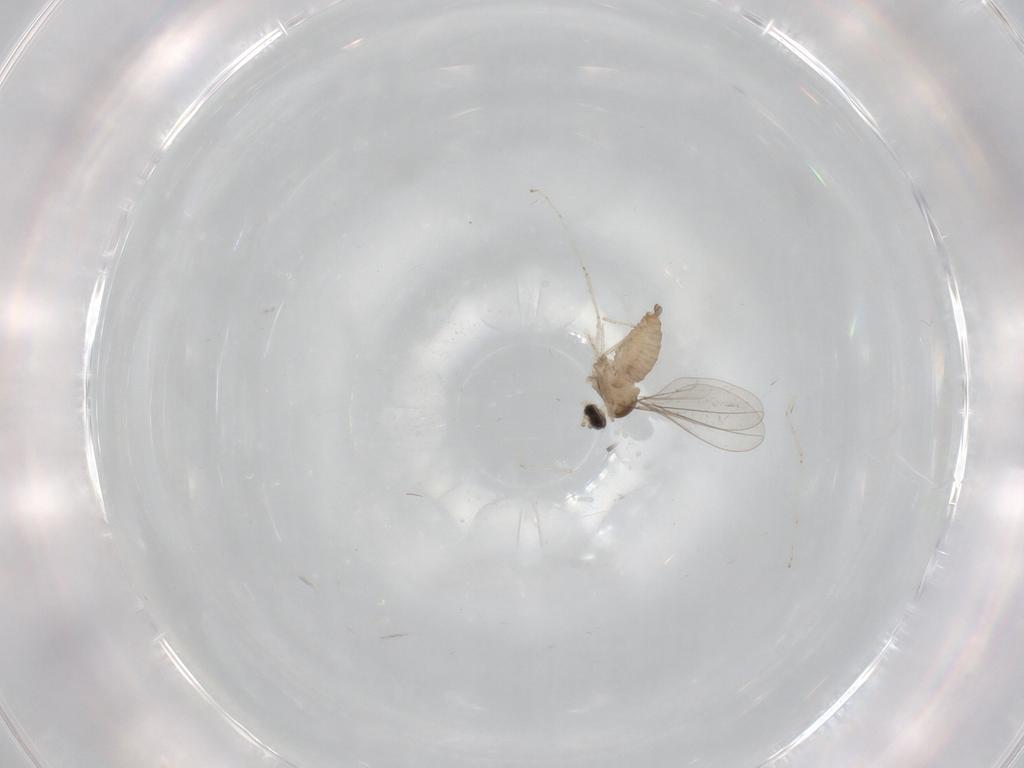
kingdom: Animalia
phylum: Arthropoda
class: Insecta
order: Diptera
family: Cecidomyiidae
